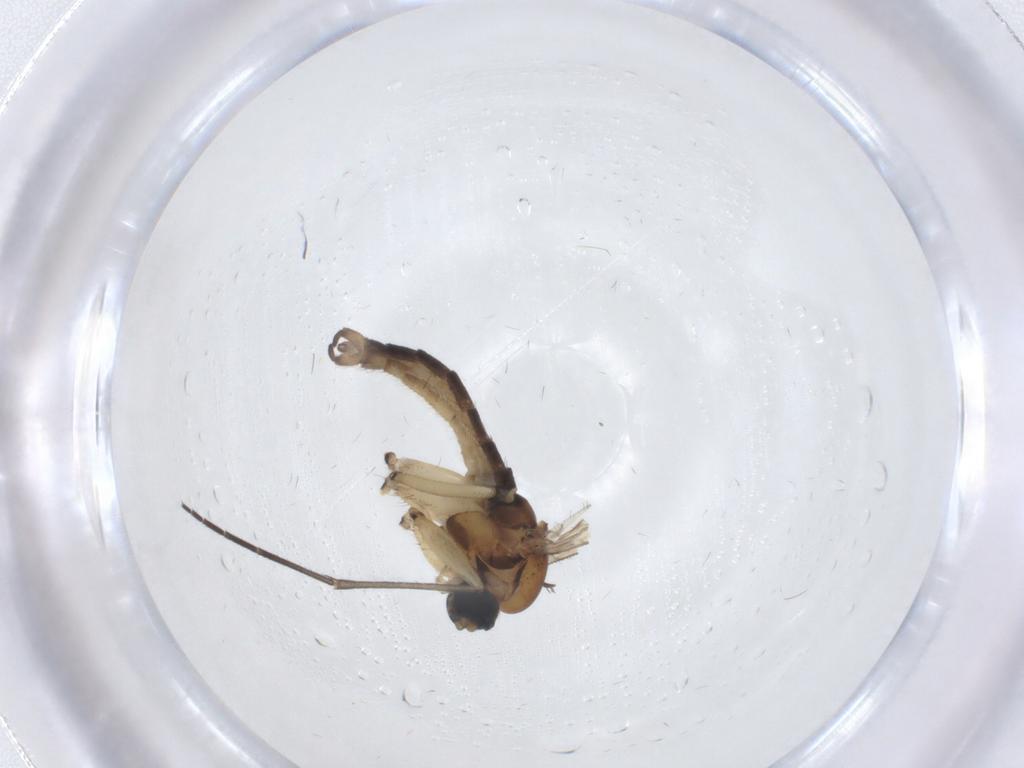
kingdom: Animalia
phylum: Arthropoda
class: Insecta
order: Diptera
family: Sciaridae
